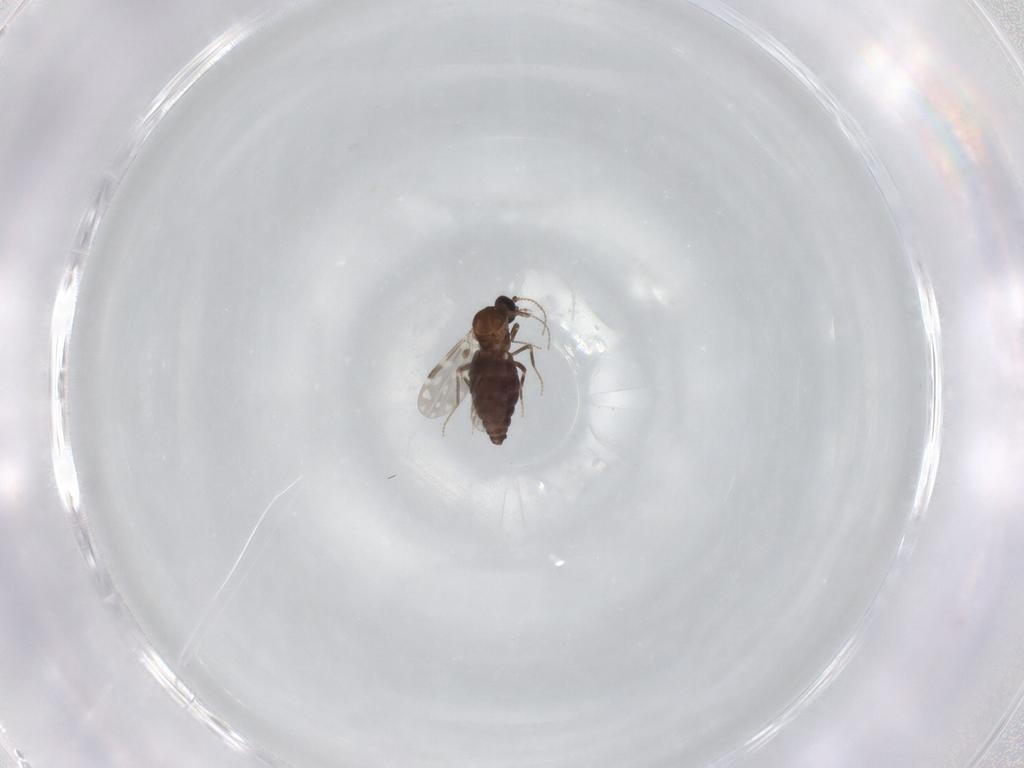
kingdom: Animalia
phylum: Arthropoda
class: Insecta
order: Diptera
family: Ceratopogonidae
